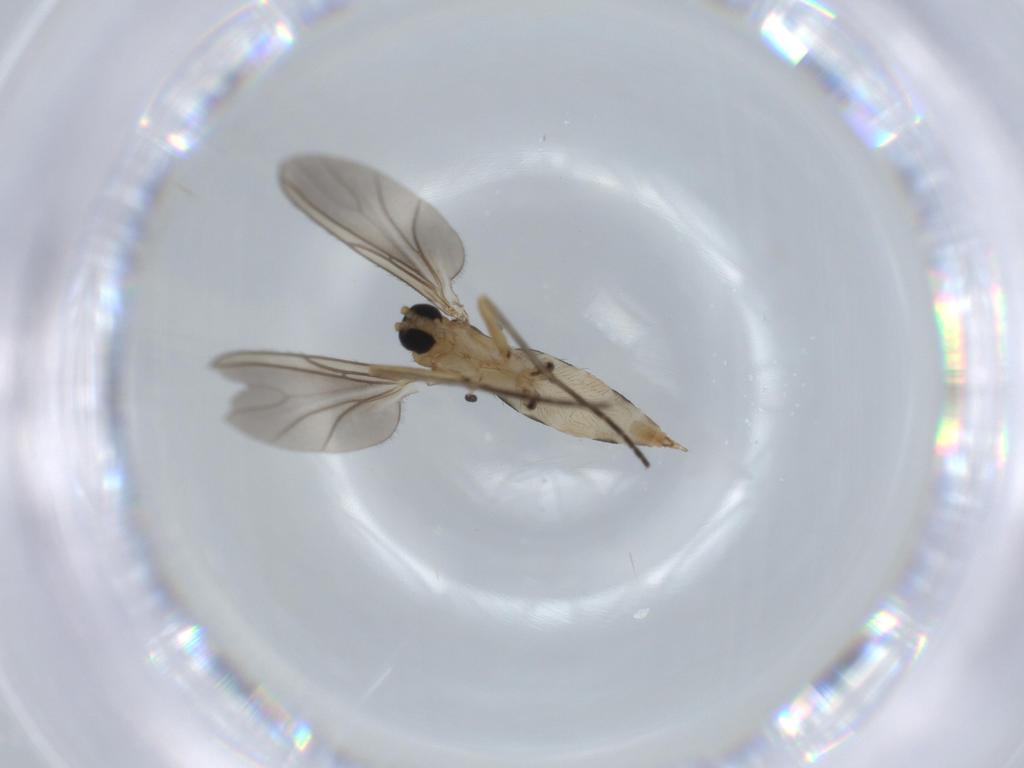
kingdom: Animalia
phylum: Arthropoda
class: Insecta
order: Diptera
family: Sciaridae
